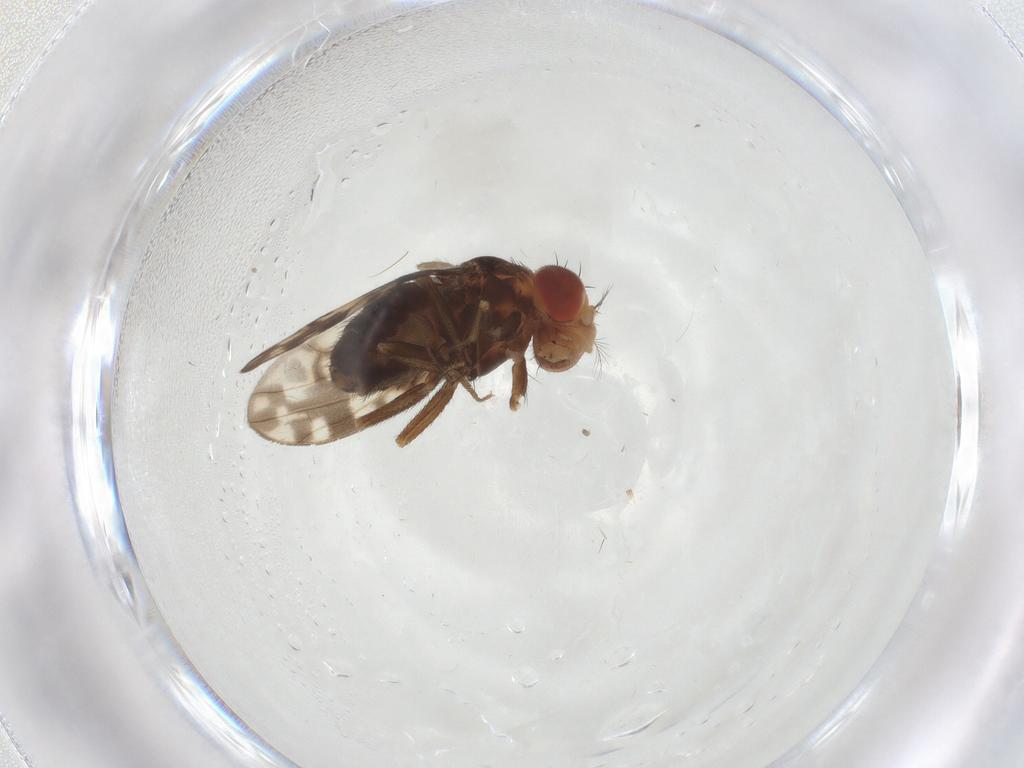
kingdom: Animalia
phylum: Arthropoda
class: Insecta
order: Diptera
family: Drosophilidae
